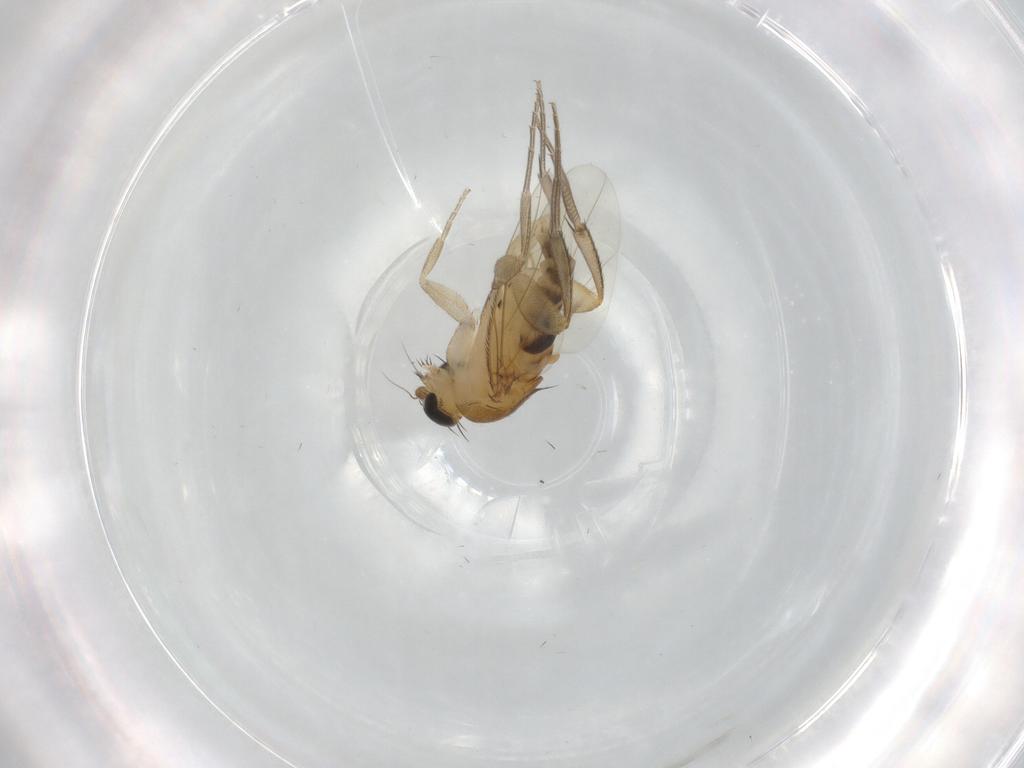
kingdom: Animalia
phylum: Arthropoda
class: Insecta
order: Diptera
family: Phoridae
